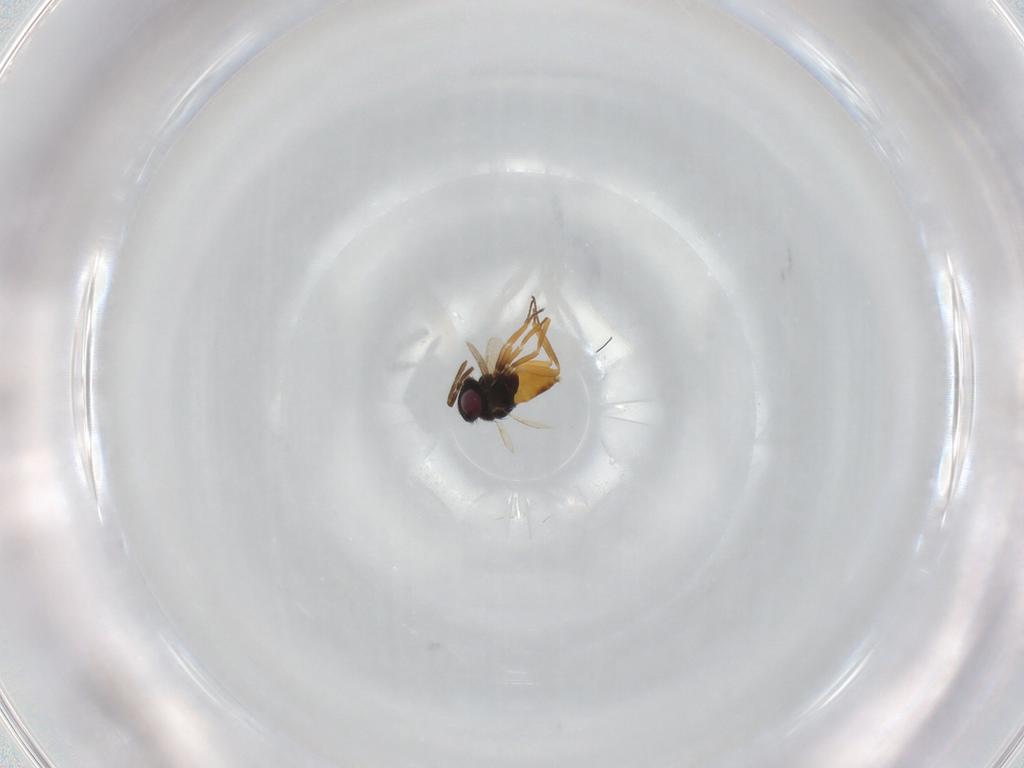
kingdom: Animalia
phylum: Arthropoda
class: Insecta
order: Hymenoptera
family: Aphelinidae
